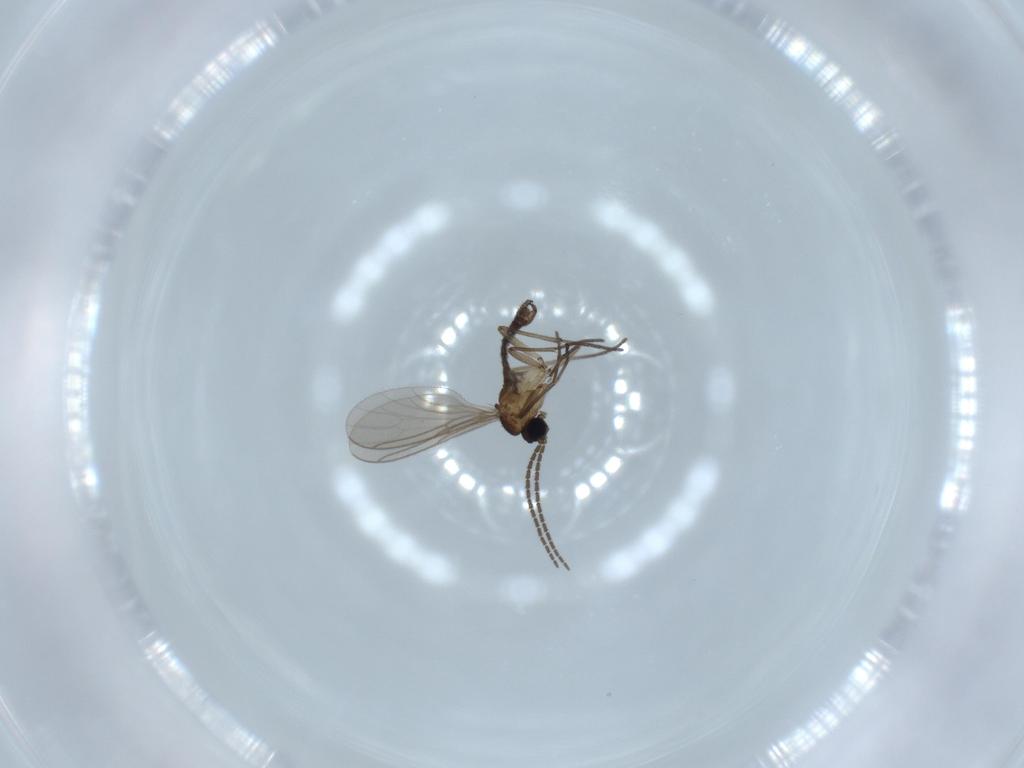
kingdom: Animalia
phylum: Arthropoda
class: Insecta
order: Diptera
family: Sciaridae
